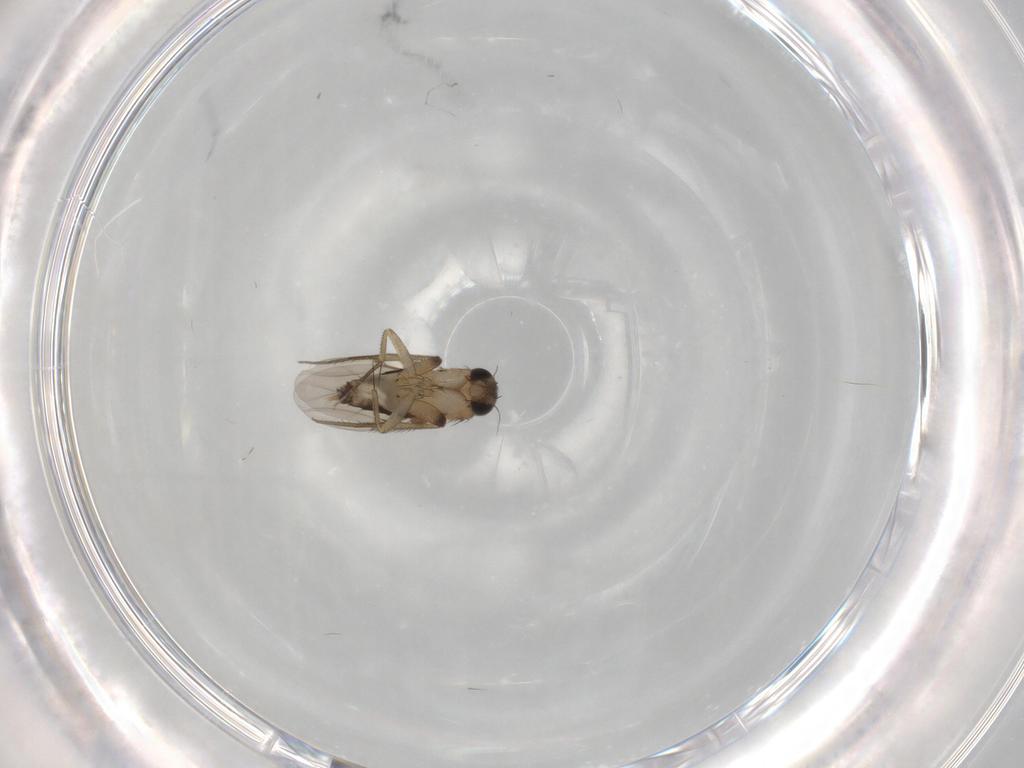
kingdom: Animalia
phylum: Arthropoda
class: Insecta
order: Diptera
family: Phoridae
